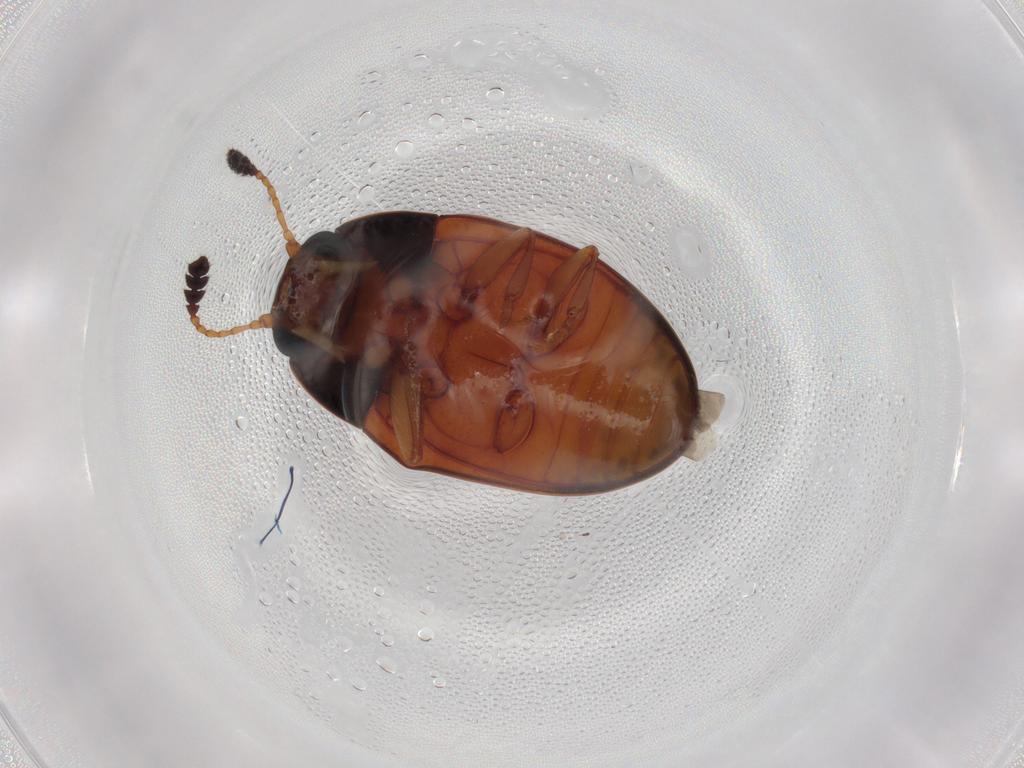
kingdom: Animalia
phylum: Arthropoda
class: Insecta
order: Coleoptera
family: Erotylidae
